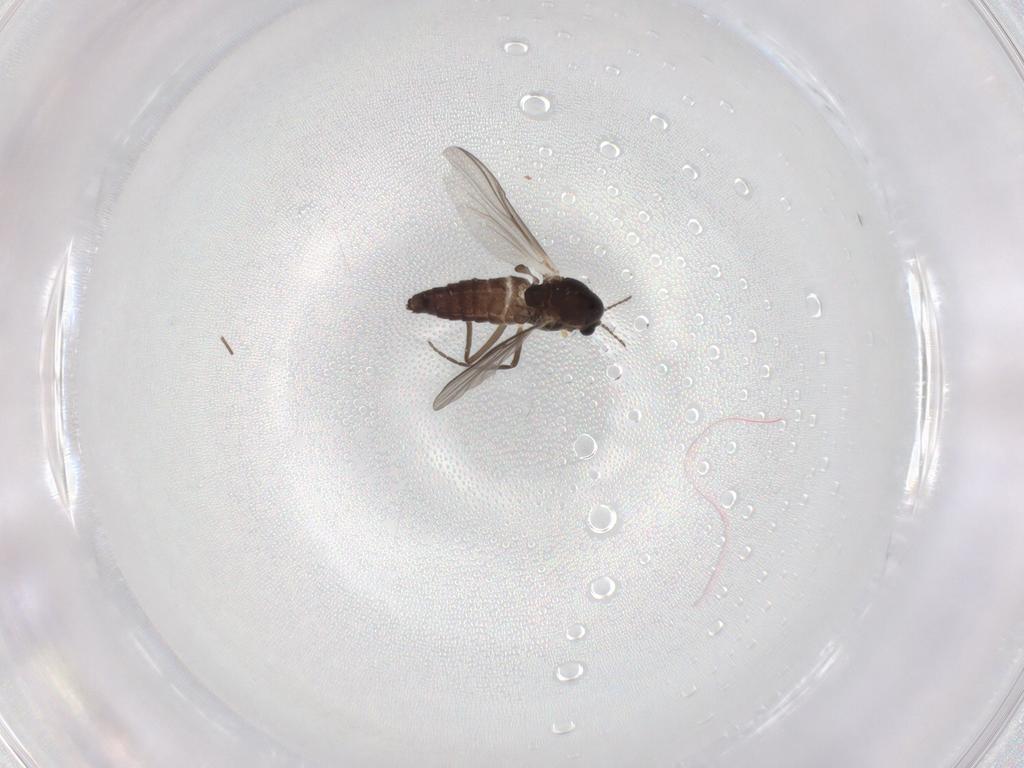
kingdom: Animalia
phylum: Arthropoda
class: Insecta
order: Diptera
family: Chironomidae
